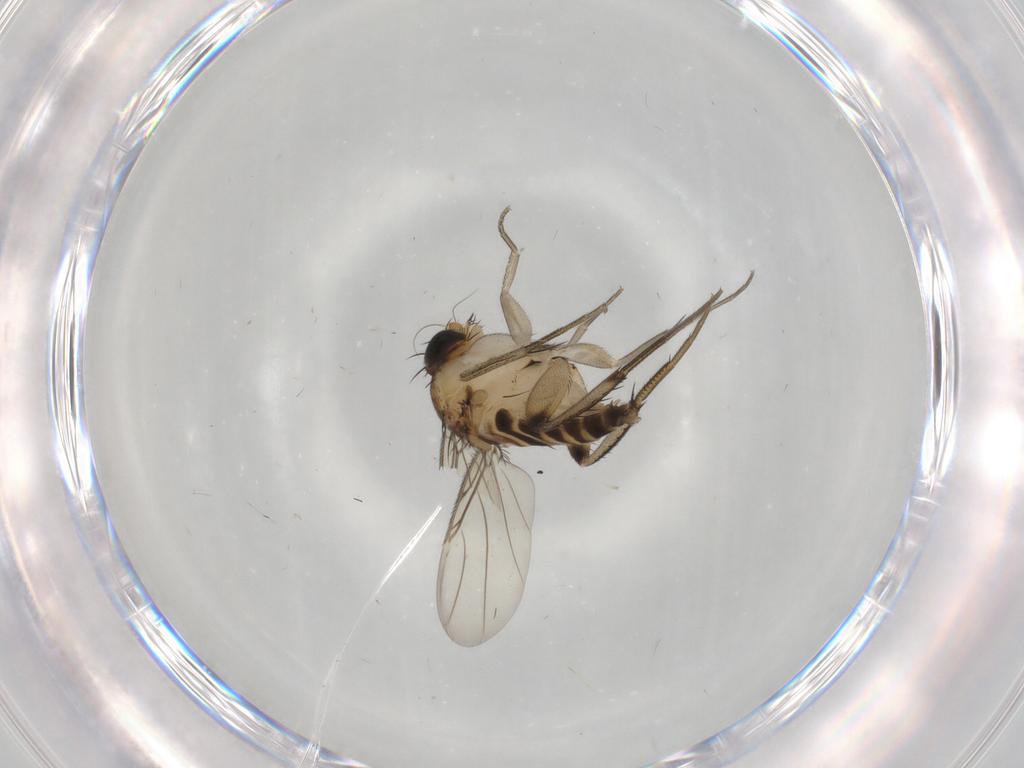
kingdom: Animalia
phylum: Arthropoda
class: Insecta
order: Diptera
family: Phoridae
